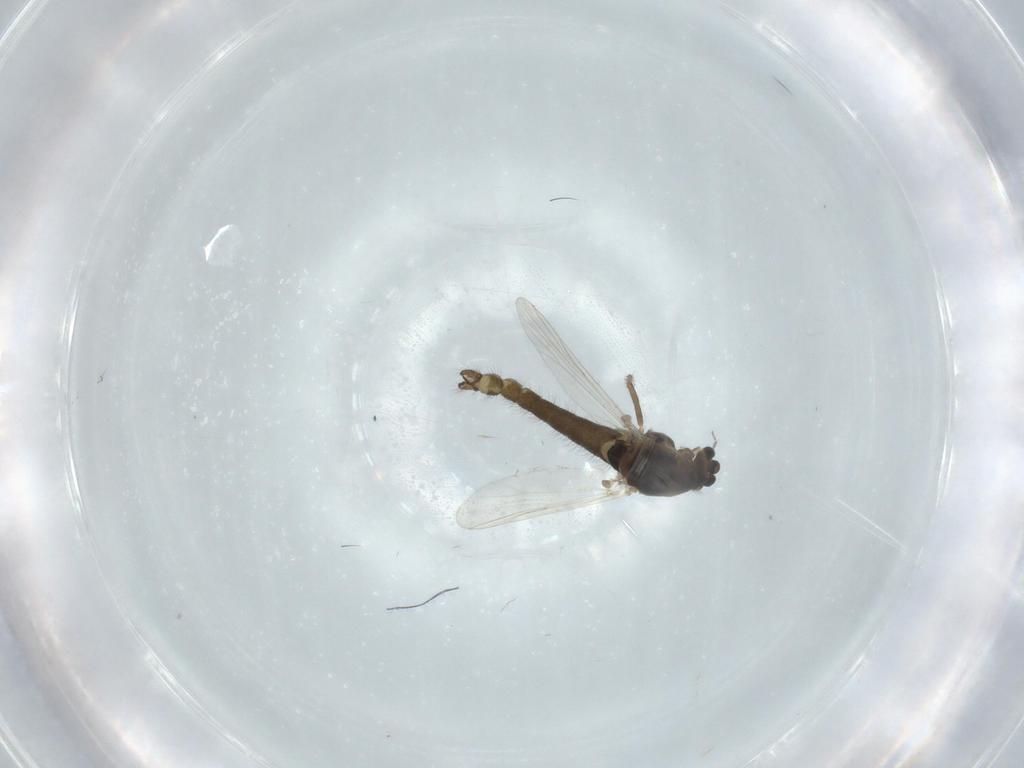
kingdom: Animalia
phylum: Arthropoda
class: Insecta
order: Diptera
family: Chironomidae
